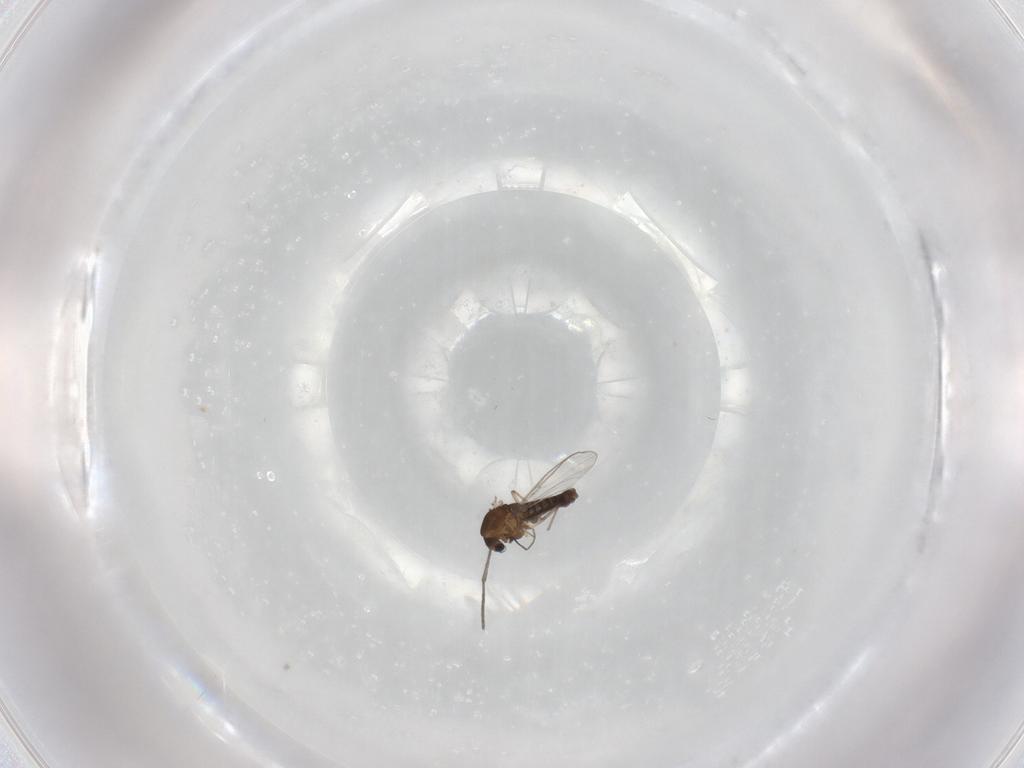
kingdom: Animalia
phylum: Arthropoda
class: Insecta
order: Diptera
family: Chironomidae
